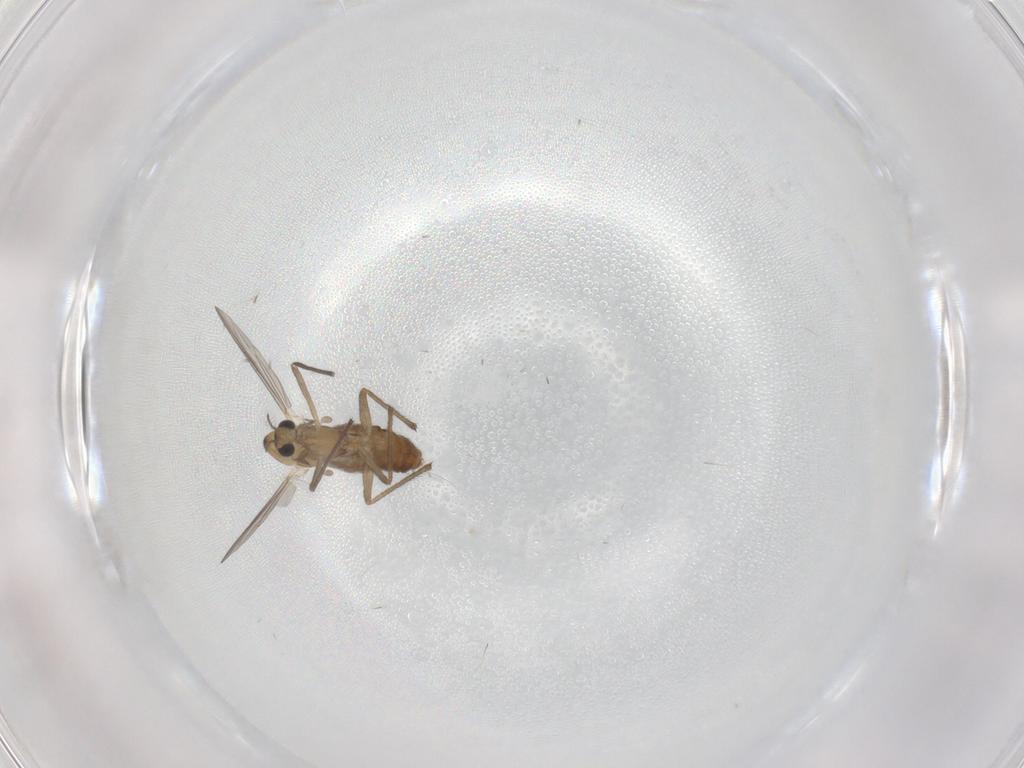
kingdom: Animalia
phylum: Arthropoda
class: Insecta
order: Diptera
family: Chironomidae
